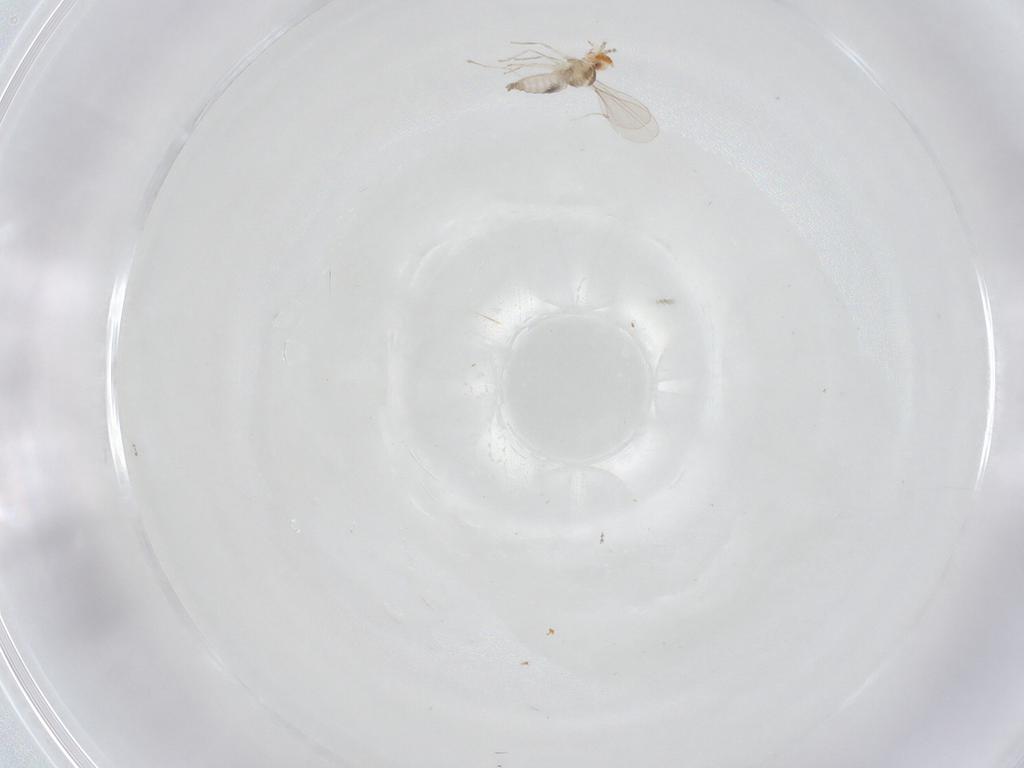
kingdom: Animalia
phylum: Arthropoda
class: Insecta
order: Diptera
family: Cecidomyiidae
